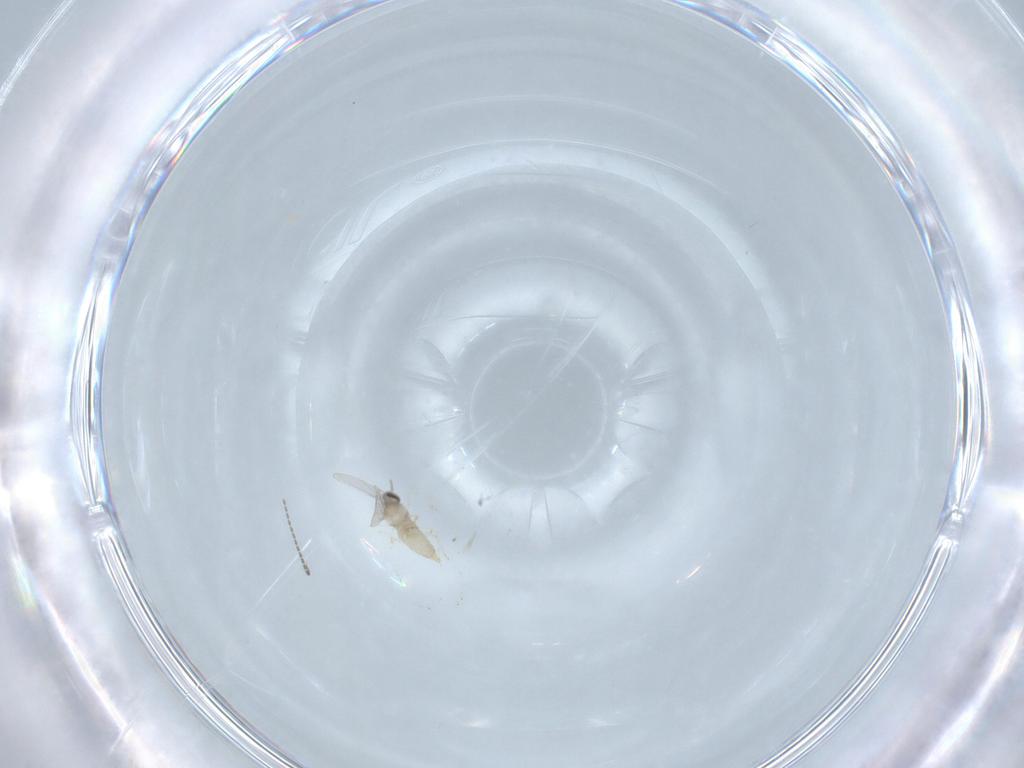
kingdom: Animalia
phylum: Arthropoda
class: Insecta
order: Diptera
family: Cecidomyiidae
